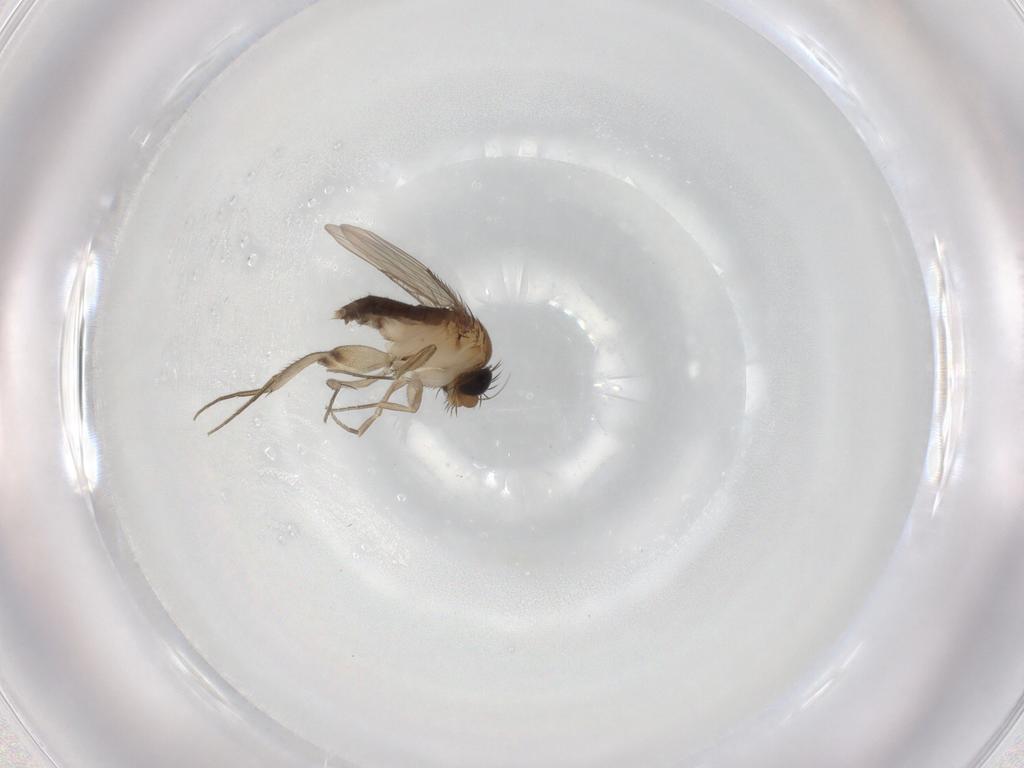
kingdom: Animalia
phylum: Arthropoda
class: Insecta
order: Diptera
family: Phoridae
